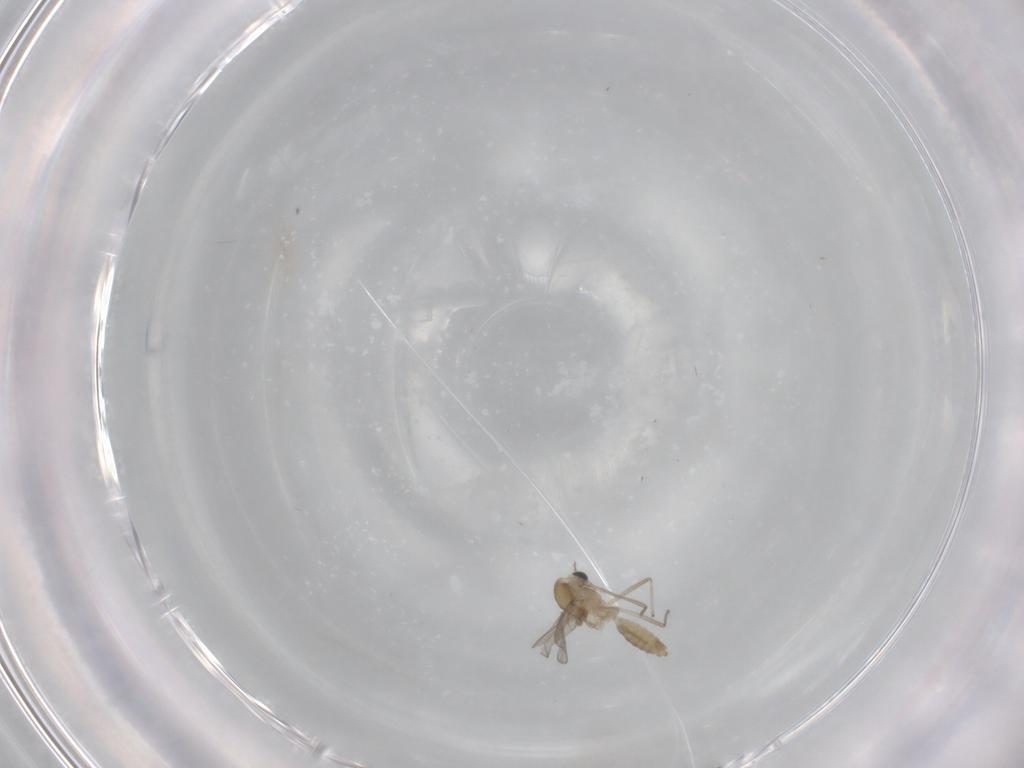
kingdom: Animalia
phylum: Arthropoda
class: Insecta
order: Diptera
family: Chironomidae
